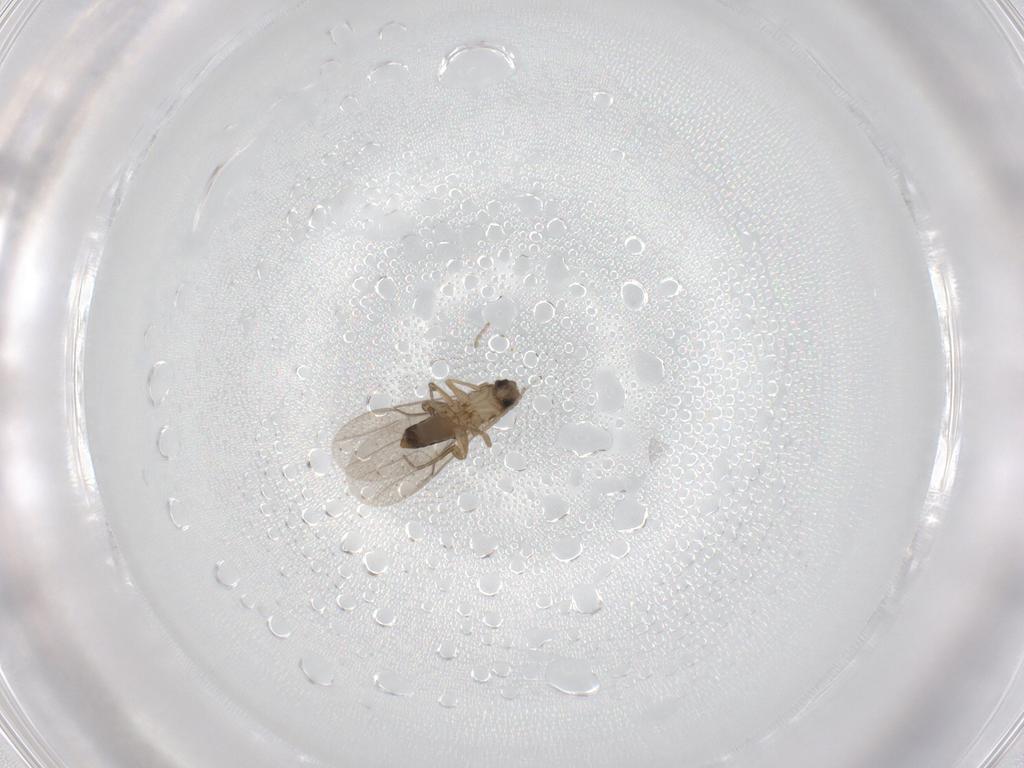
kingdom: Animalia
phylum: Arthropoda
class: Insecta
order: Diptera
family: Phoridae
